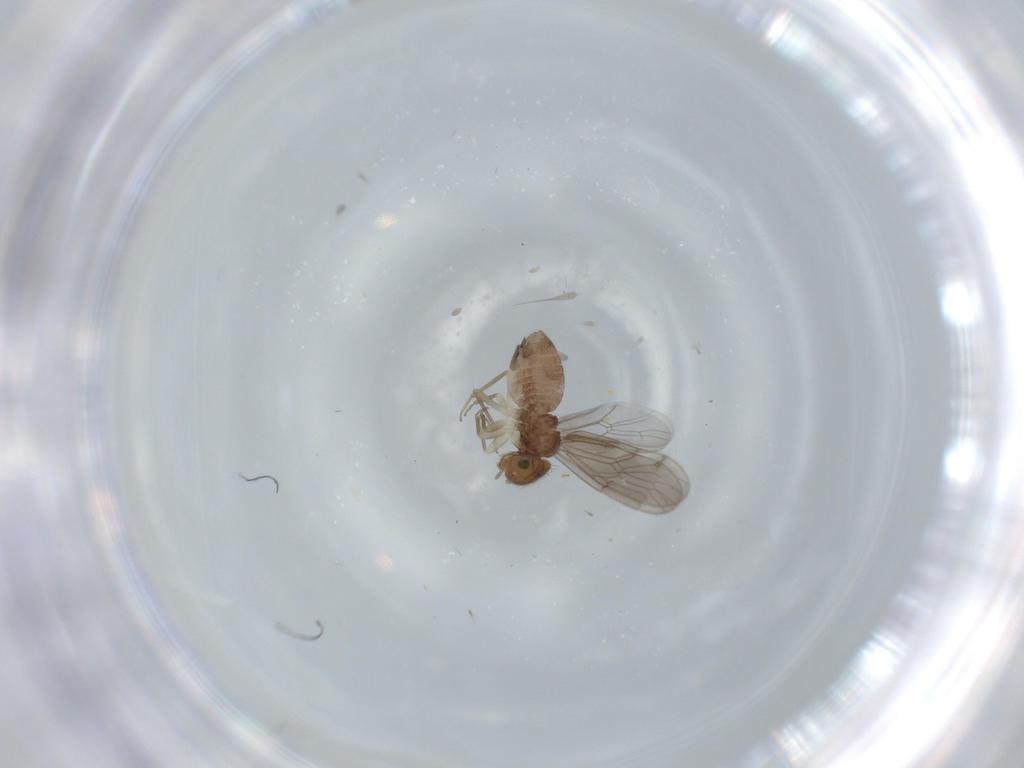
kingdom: Animalia
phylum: Arthropoda
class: Insecta
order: Psocodea
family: Ectopsocidae
